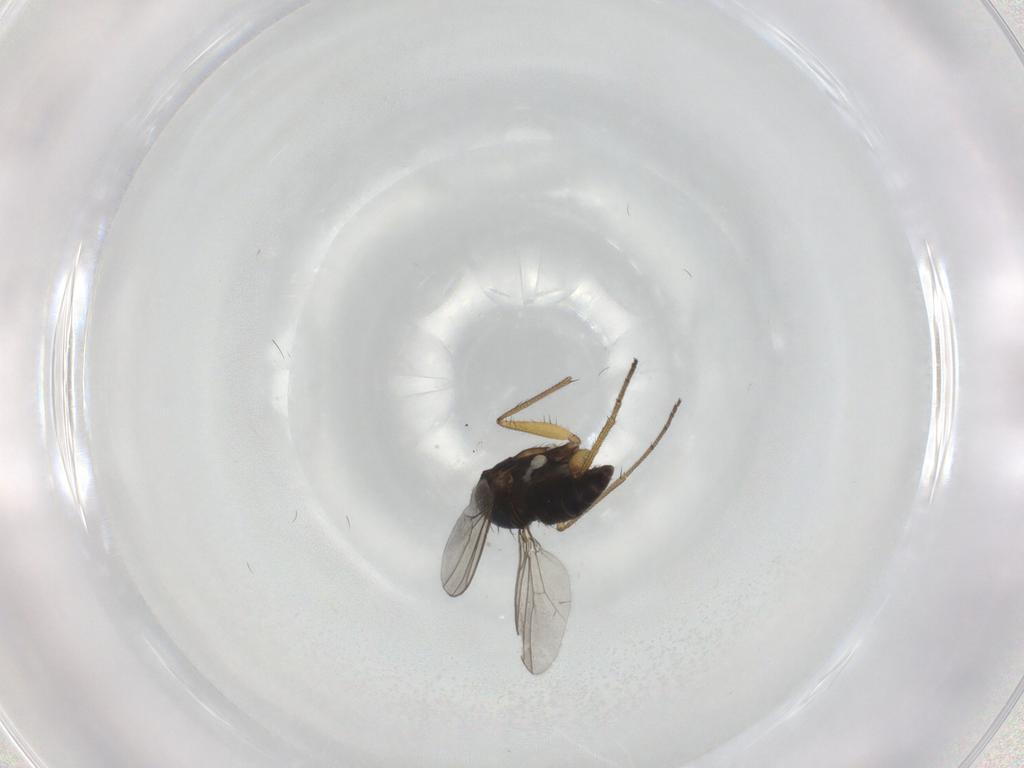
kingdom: Animalia
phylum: Arthropoda
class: Insecta
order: Diptera
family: Dolichopodidae
